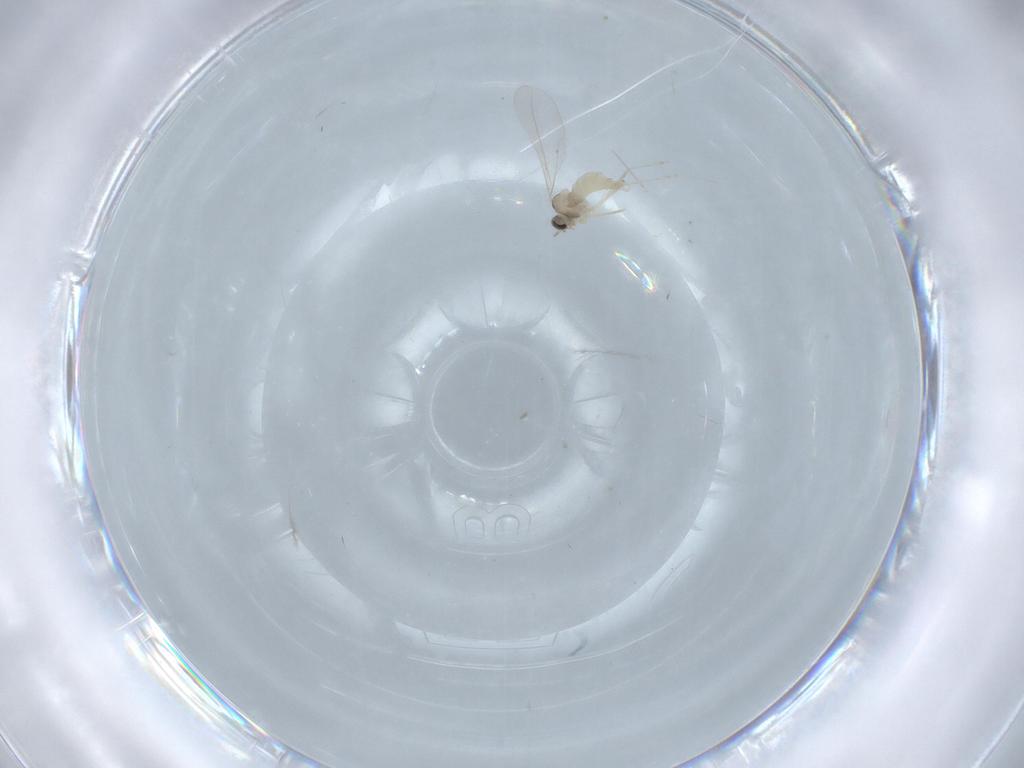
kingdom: Animalia
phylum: Arthropoda
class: Insecta
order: Diptera
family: Cecidomyiidae
